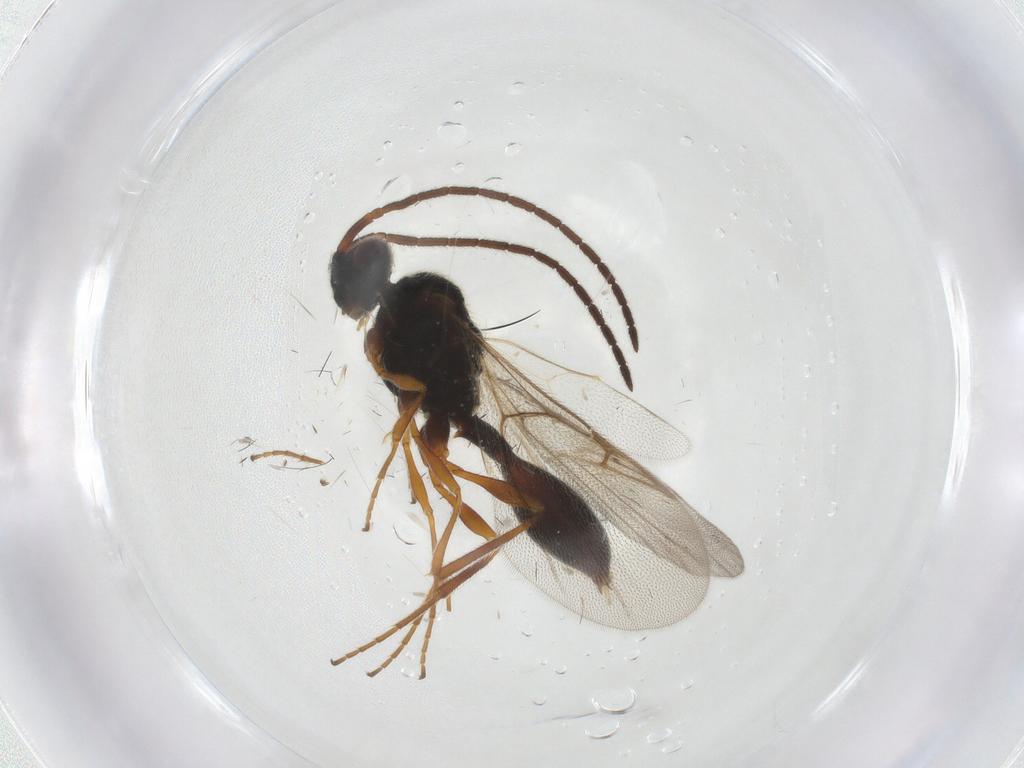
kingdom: Animalia
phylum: Arthropoda
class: Insecta
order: Hymenoptera
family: Cynipidae
